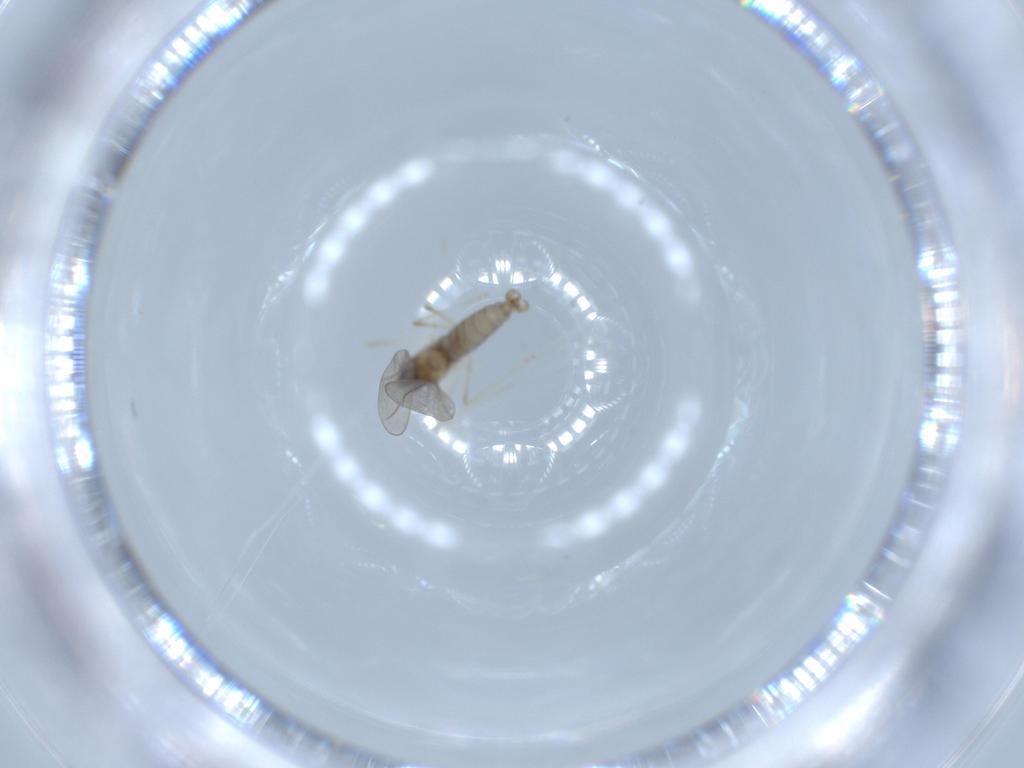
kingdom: Animalia
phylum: Arthropoda
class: Insecta
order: Diptera
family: Cecidomyiidae
